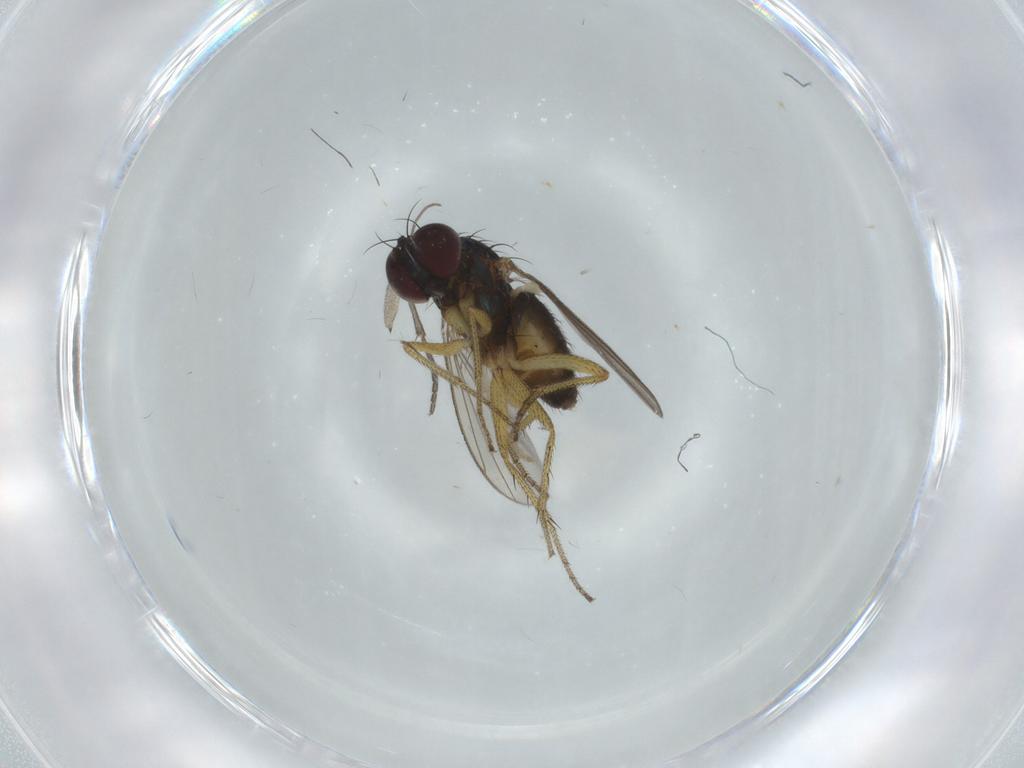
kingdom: Animalia
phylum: Arthropoda
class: Insecta
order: Diptera
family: Sciaridae
